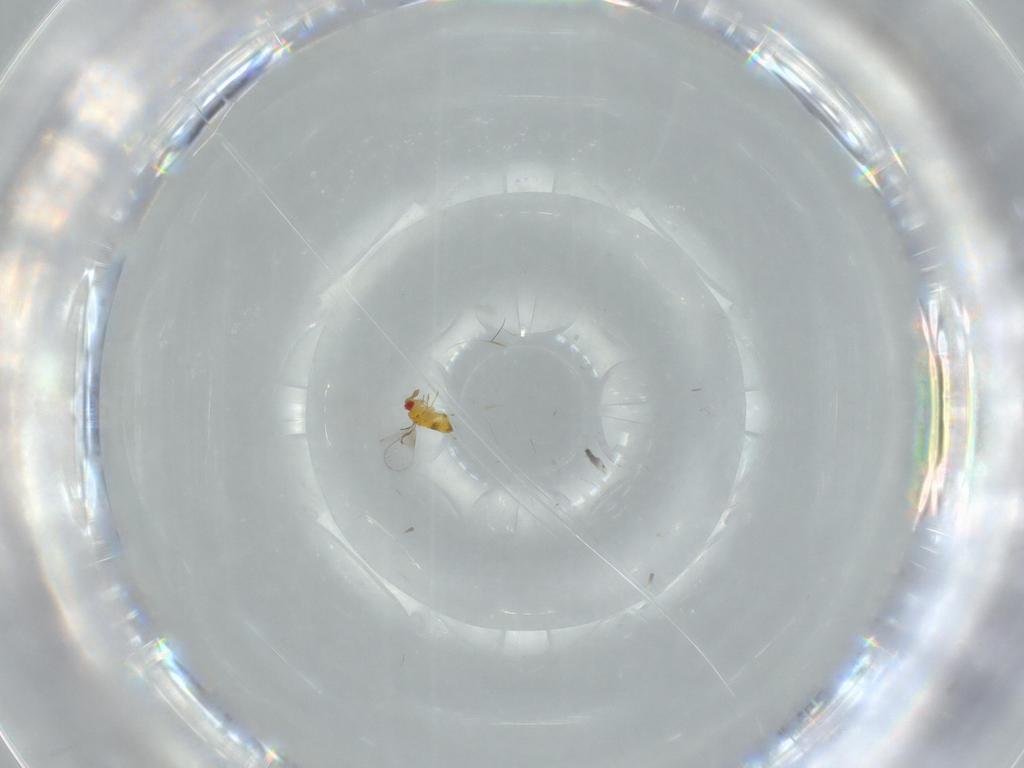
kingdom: Animalia
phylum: Arthropoda
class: Insecta
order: Hymenoptera
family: Trichogrammatidae
